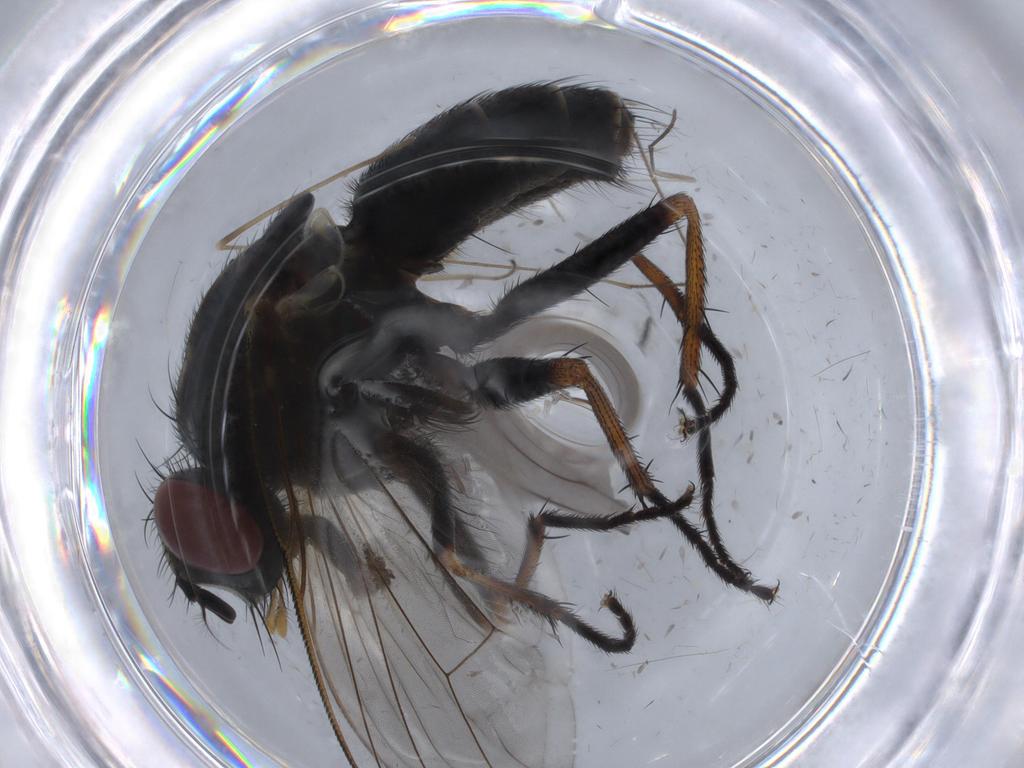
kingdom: Animalia
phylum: Arthropoda
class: Insecta
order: Diptera
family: Muscidae
